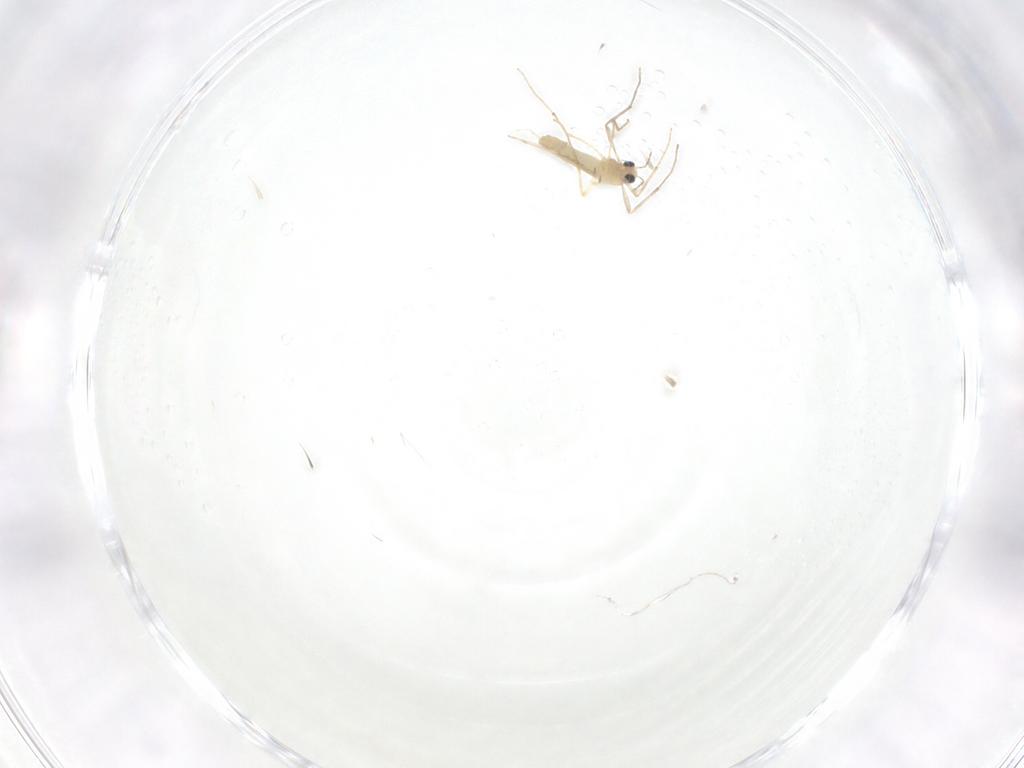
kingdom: Animalia
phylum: Arthropoda
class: Insecta
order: Diptera
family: Chironomidae
